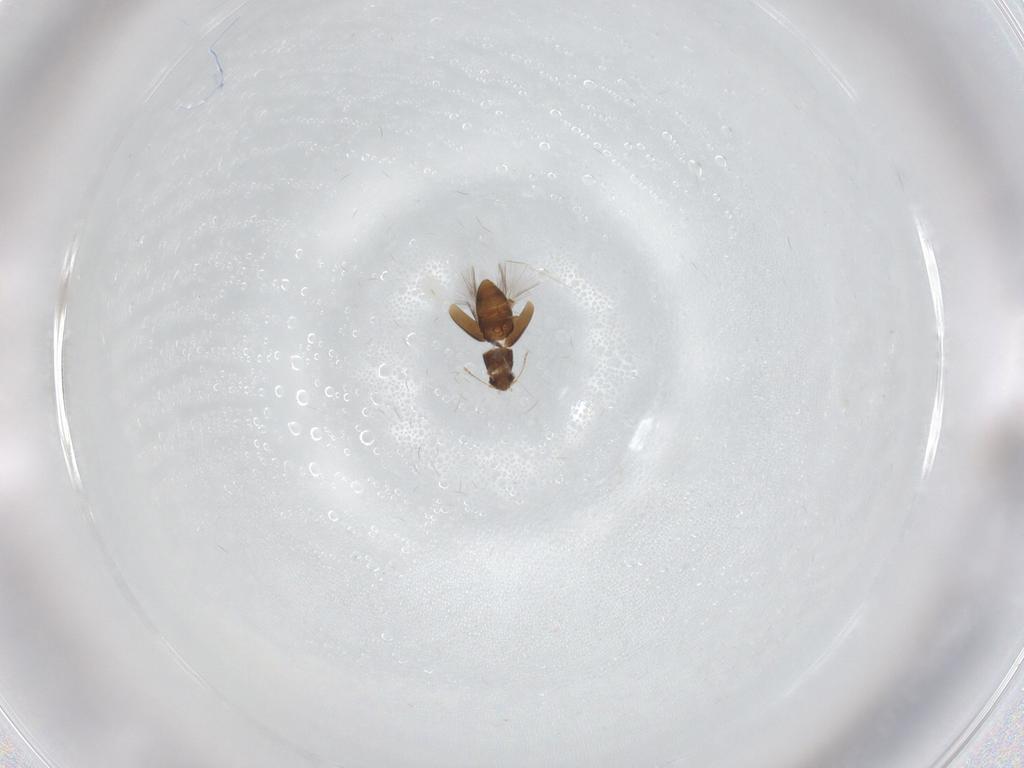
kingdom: Animalia
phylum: Arthropoda
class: Insecta
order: Coleoptera
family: Ptiliidae
